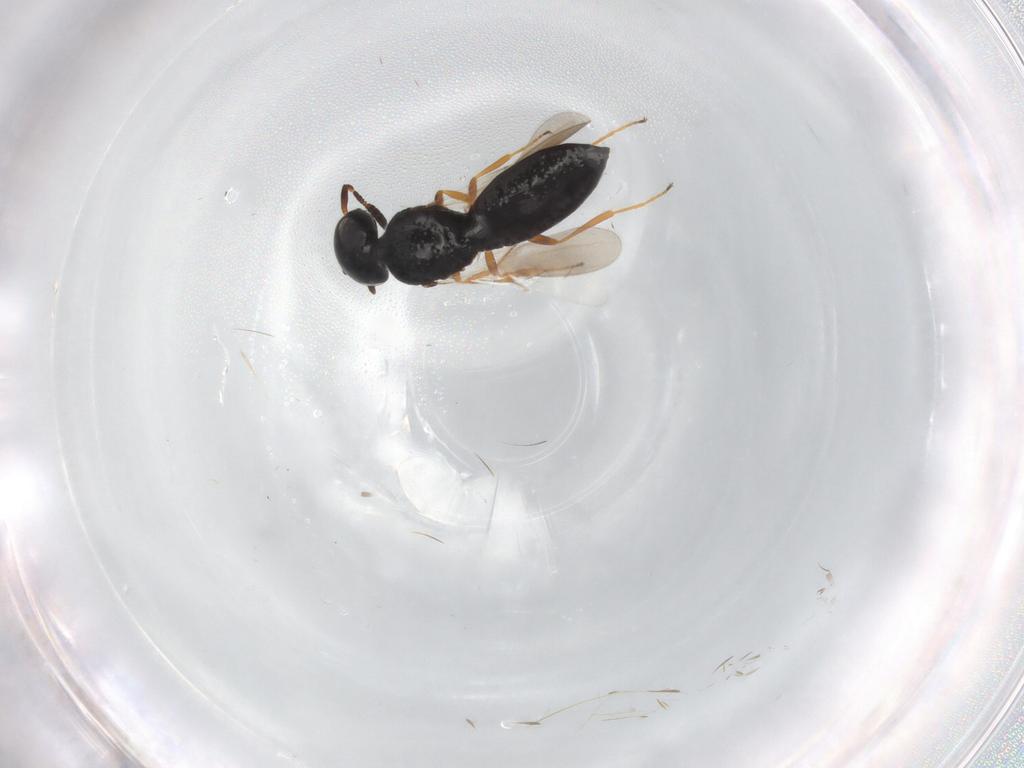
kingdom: Animalia
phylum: Arthropoda
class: Insecta
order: Hymenoptera
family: Scelionidae
